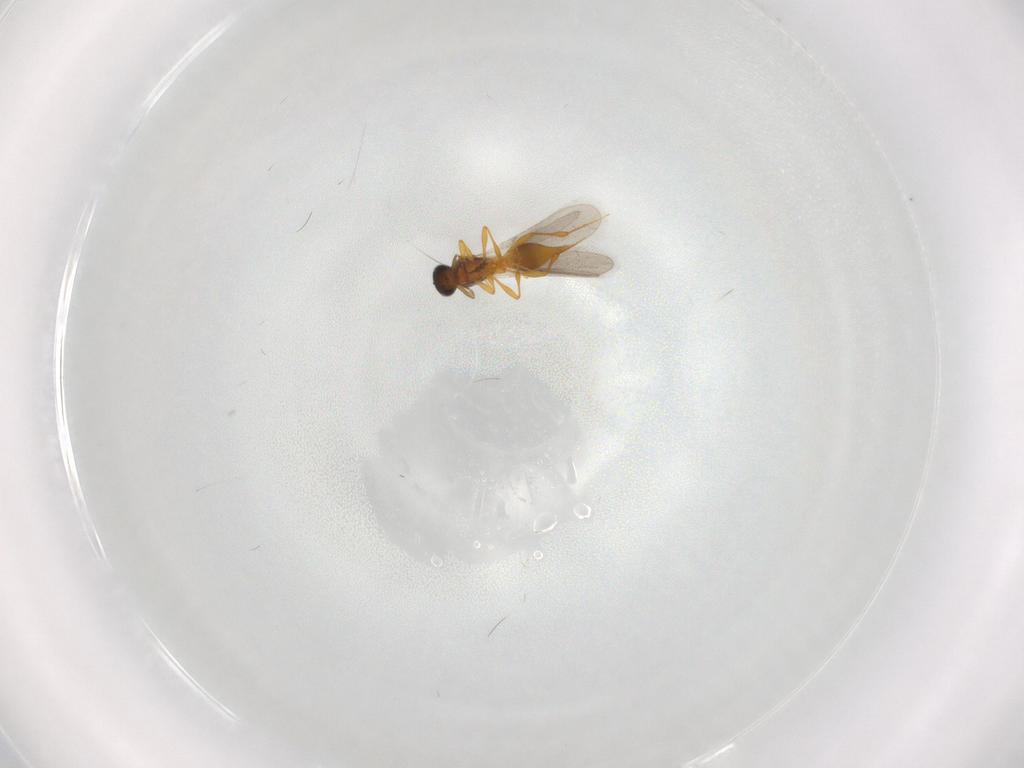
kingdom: Animalia
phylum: Arthropoda
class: Insecta
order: Hymenoptera
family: Platygastridae
